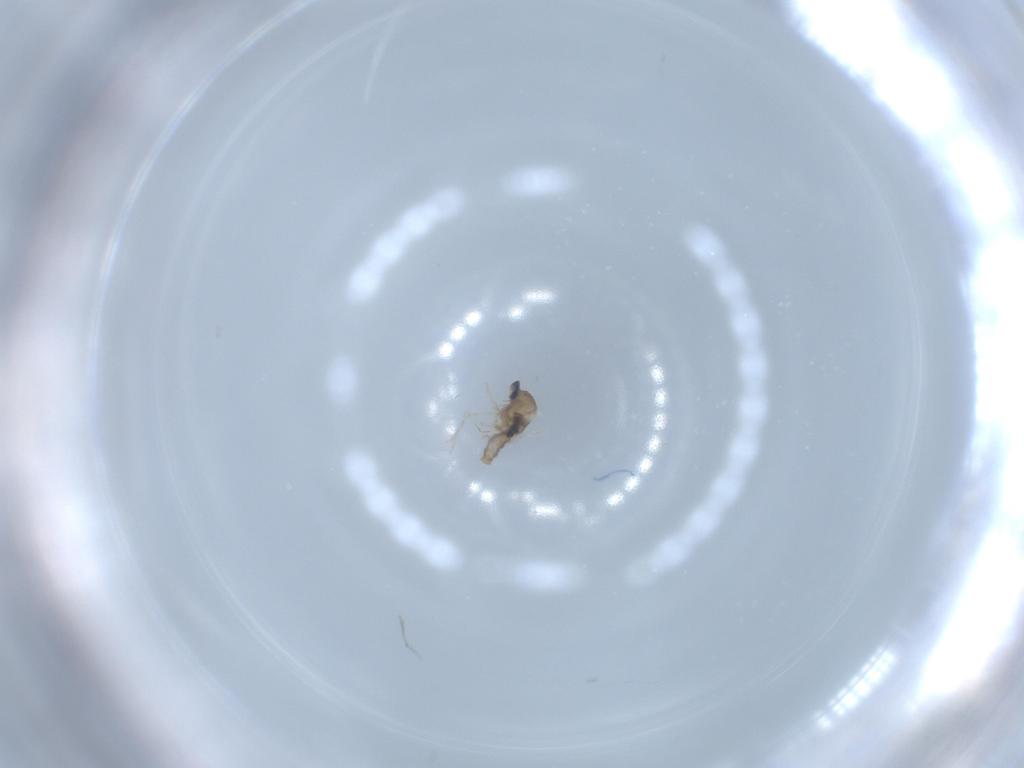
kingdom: Animalia
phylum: Arthropoda
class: Insecta
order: Diptera
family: Cecidomyiidae
